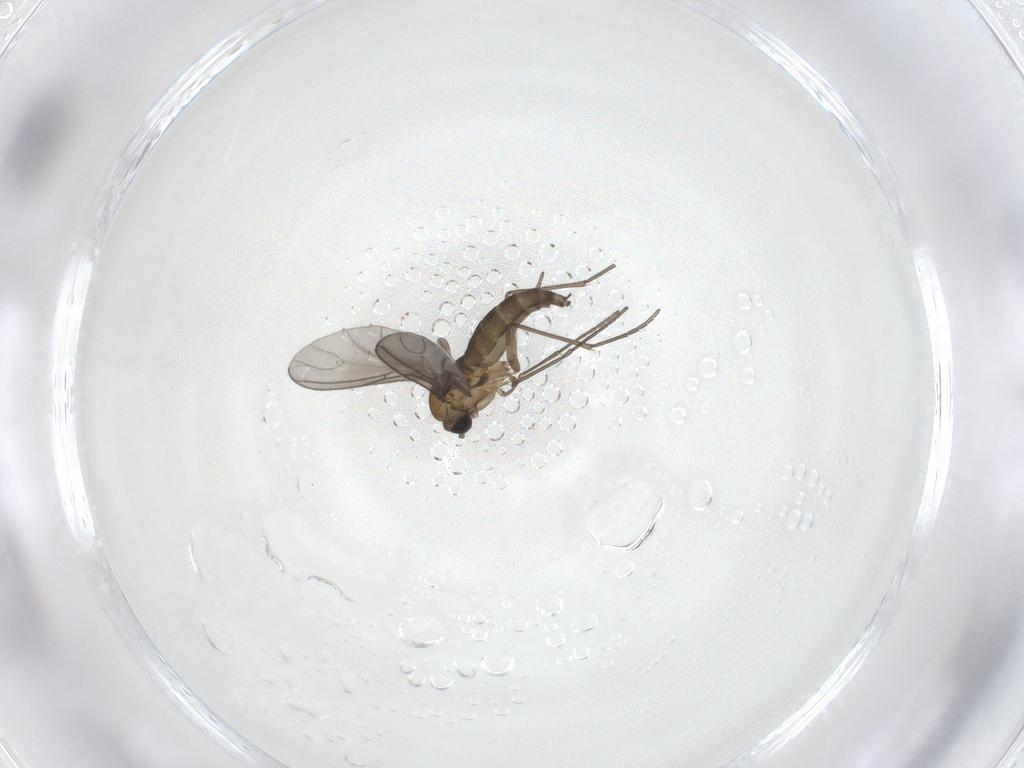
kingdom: Animalia
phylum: Arthropoda
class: Insecta
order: Diptera
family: Sciaridae
